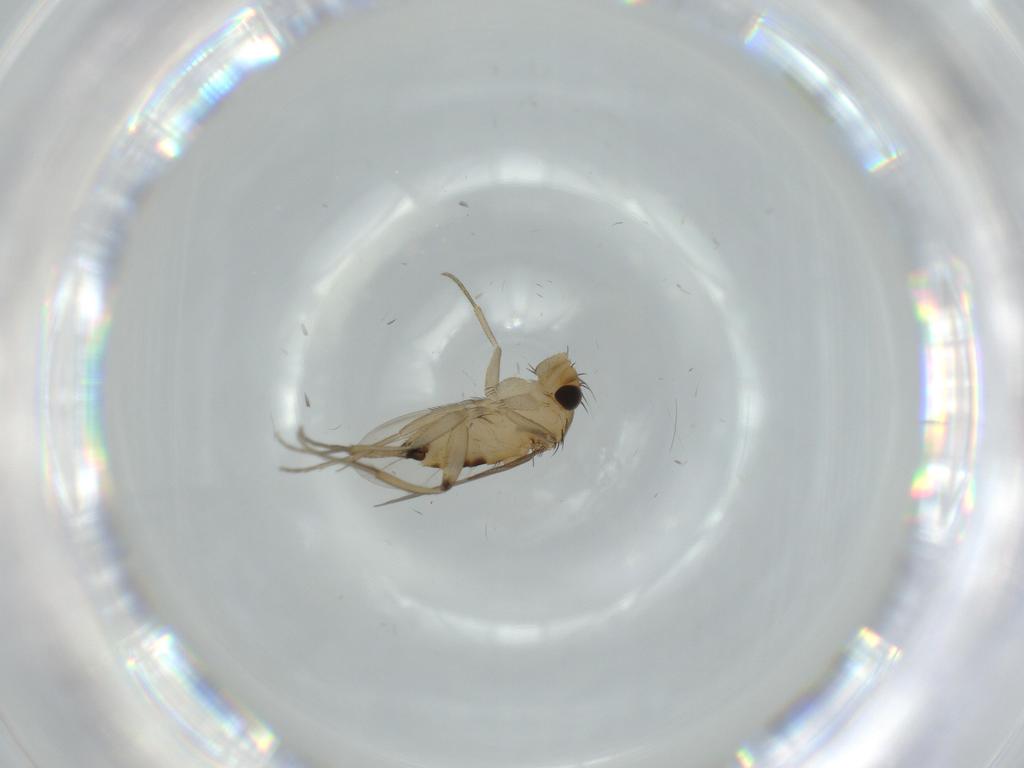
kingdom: Animalia
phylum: Arthropoda
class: Insecta
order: Diptera
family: Phoridae
